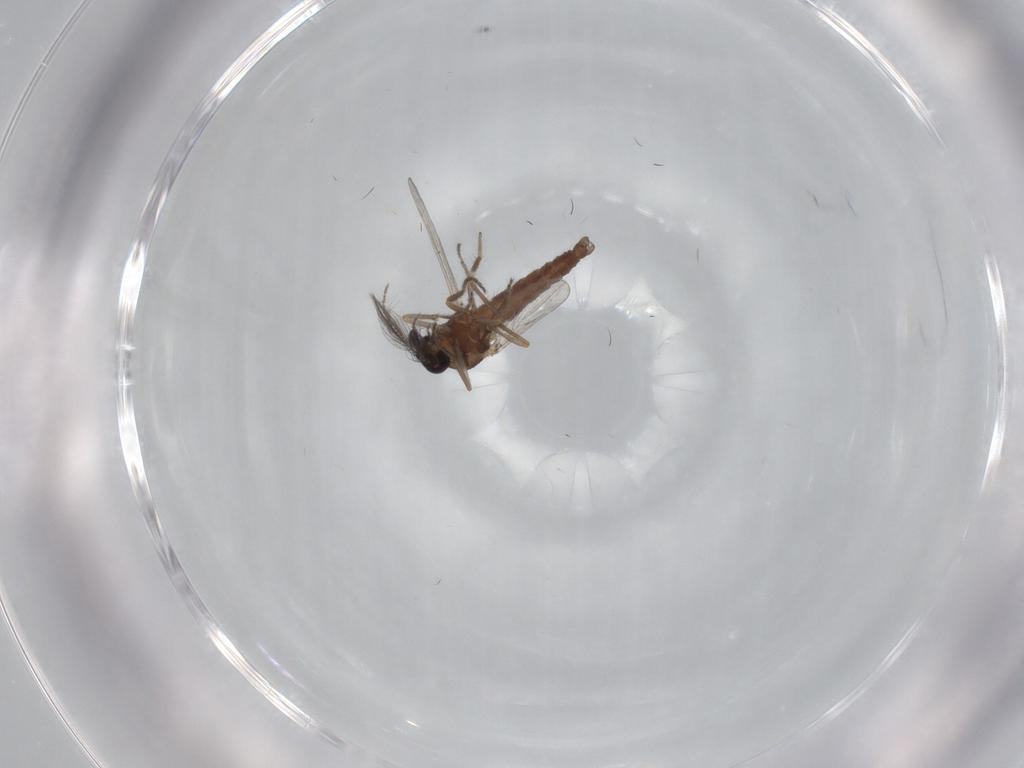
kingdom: Animalia
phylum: Arthropoda
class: Insecta
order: Diptera
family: Ceratopogonidae
